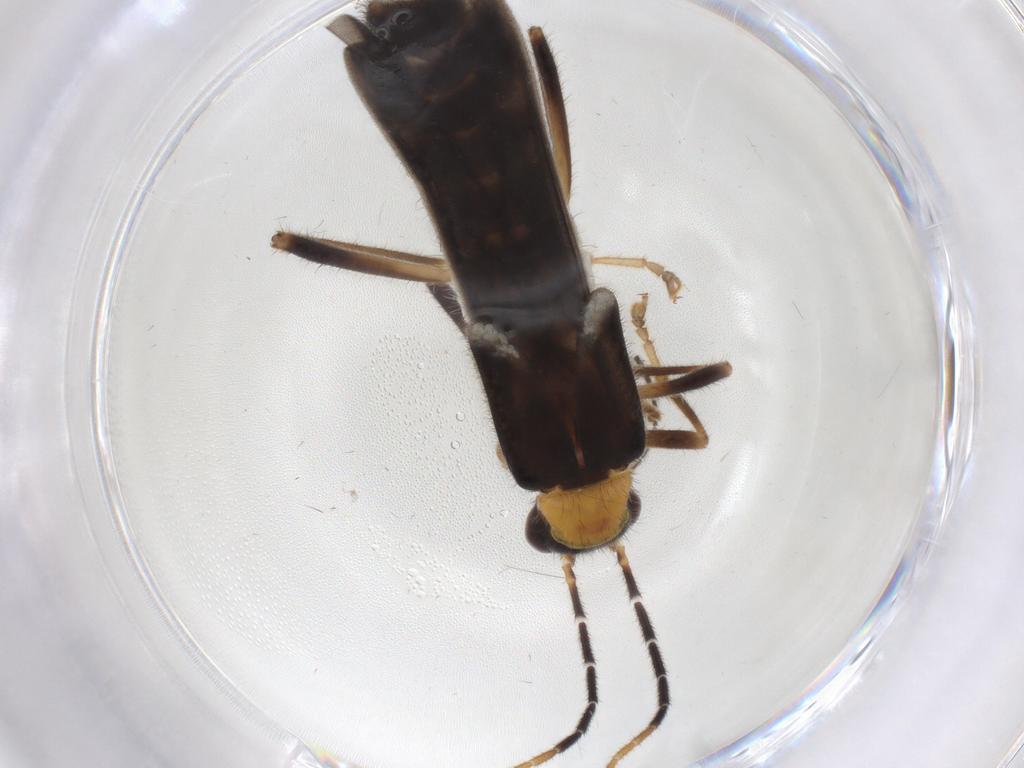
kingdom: Animalia
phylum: Arthropoda
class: Insecta
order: Coleoptera
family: Cantharidae
